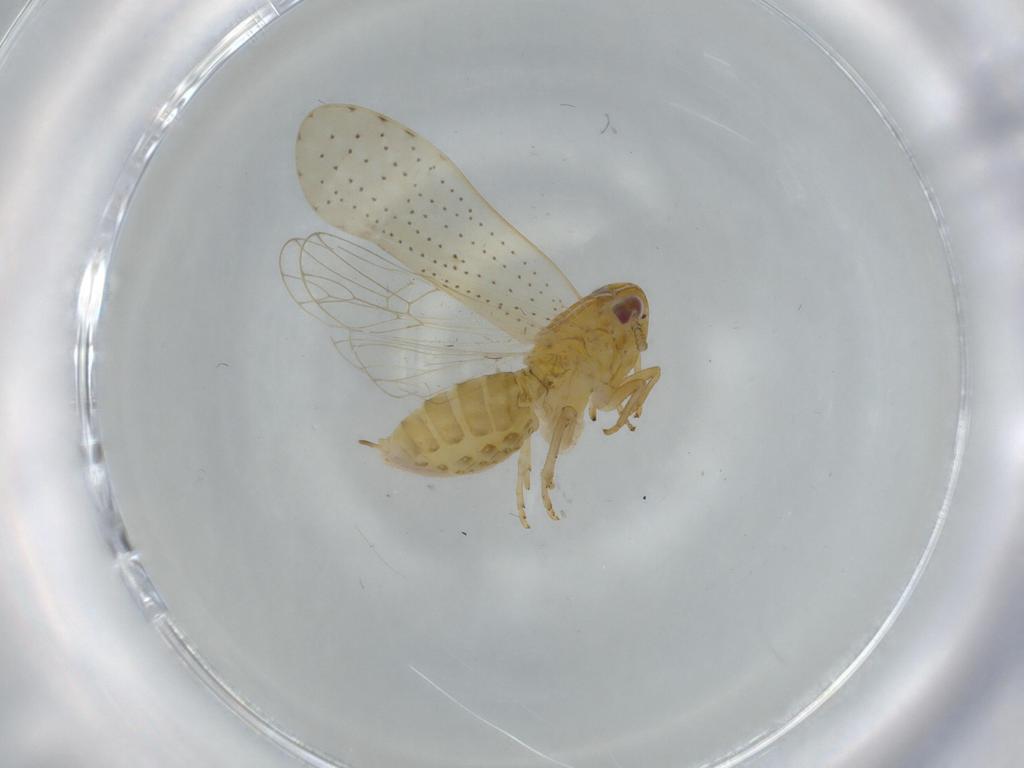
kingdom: Animalia
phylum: Arthropoda
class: Insecta
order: Hemiptera
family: Delphacidae
